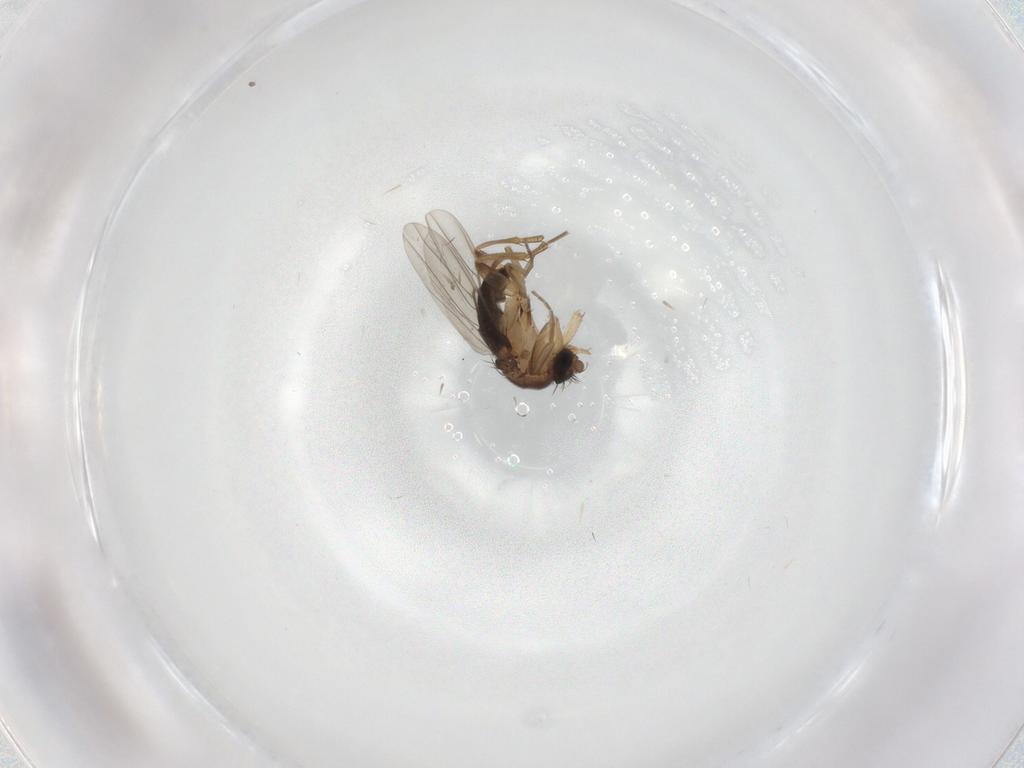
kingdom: Animalia
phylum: Arthropoda
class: Insecta
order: Diptera
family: Phoridae
